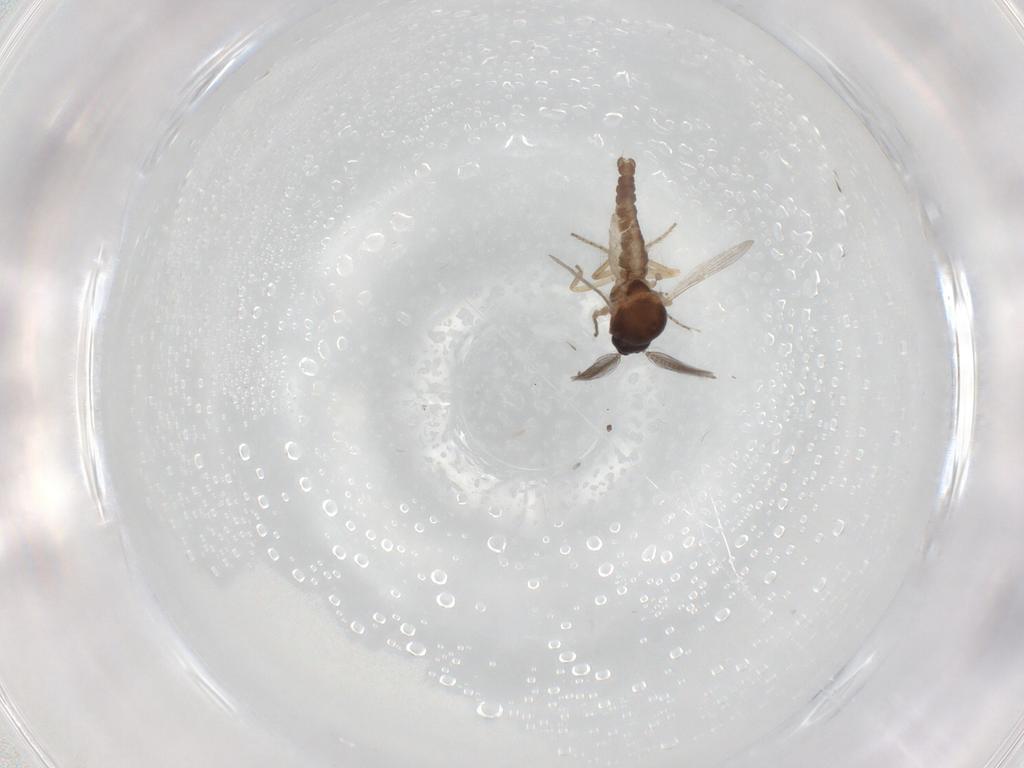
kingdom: Animalia
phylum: Arthropoda
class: Insecta
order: Diptera
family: Ceratopogonidae
